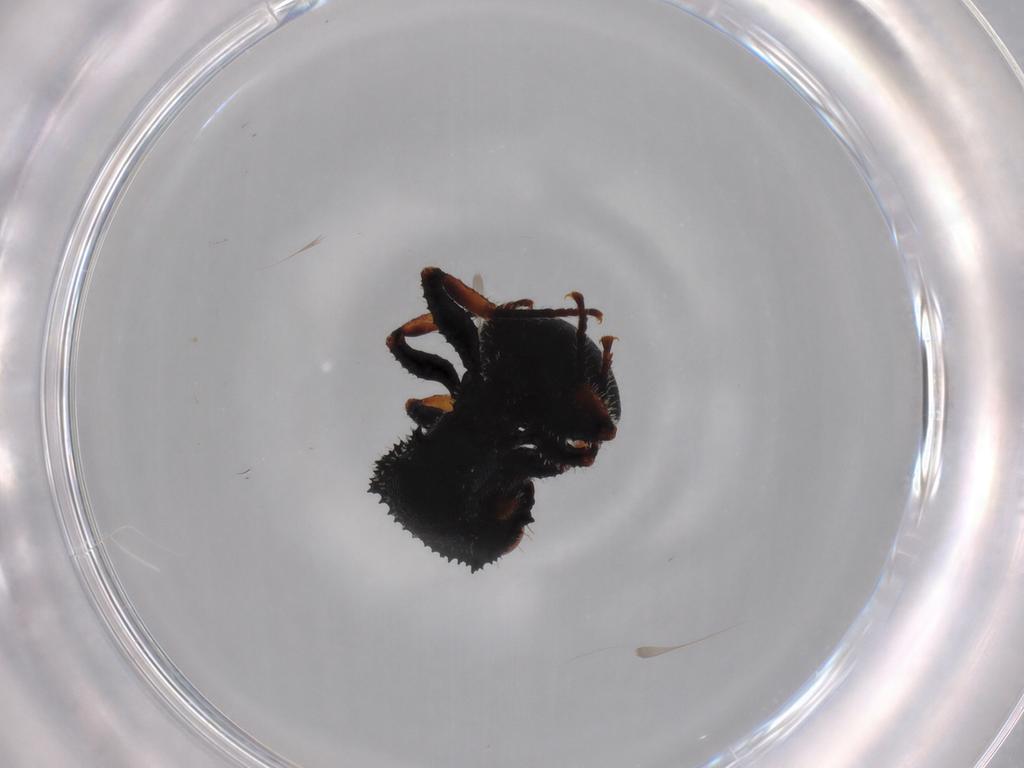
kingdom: Animalia
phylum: Arthropoda
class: Insecta
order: Hymenoptera
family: Formicidae
